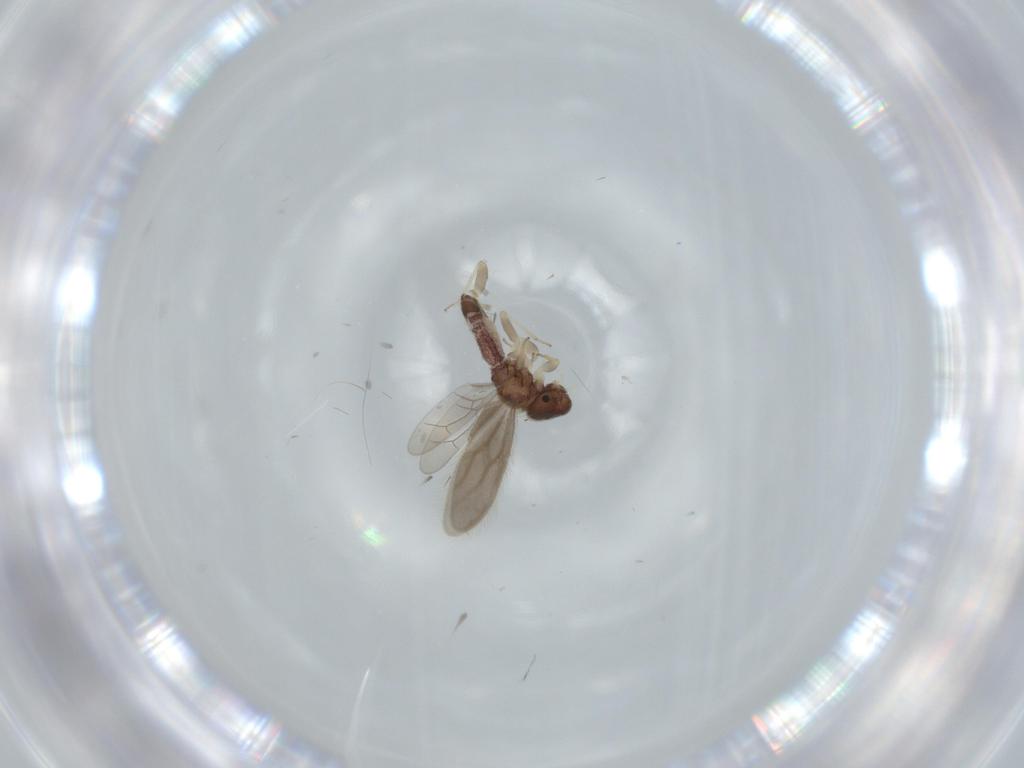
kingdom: Animalia
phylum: Arthropoda
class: Insecta
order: Psocodea
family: Archipsocidae
